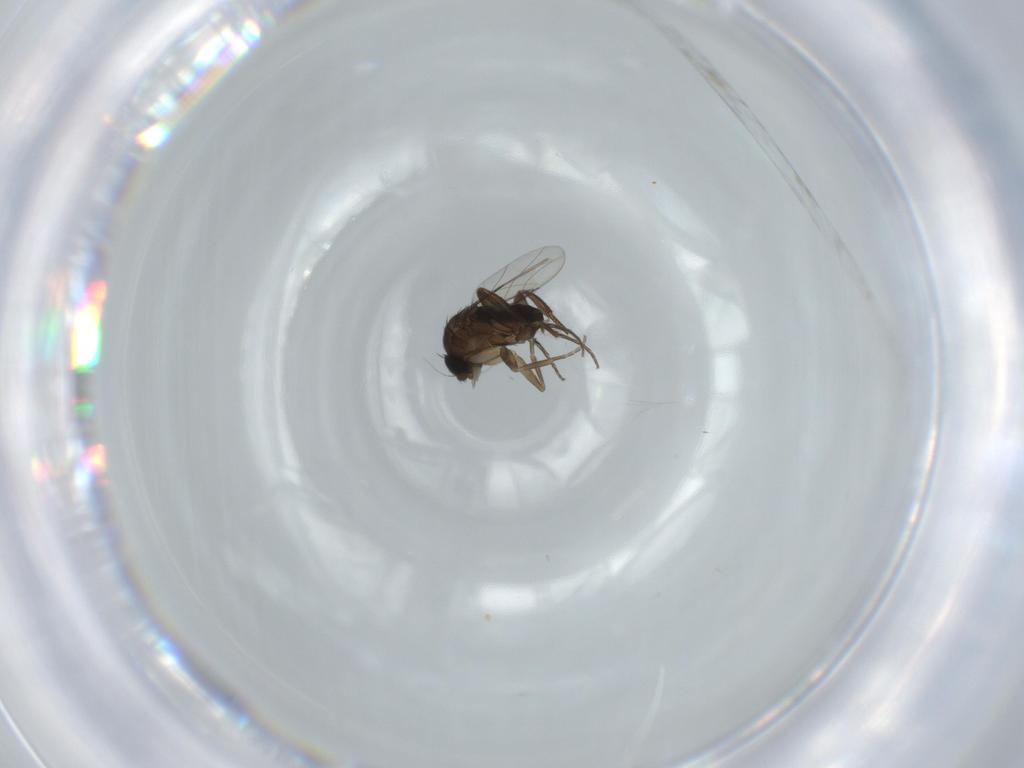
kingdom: Animalia
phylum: Arthropoda
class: Insecta
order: Diptera
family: Phoridae
